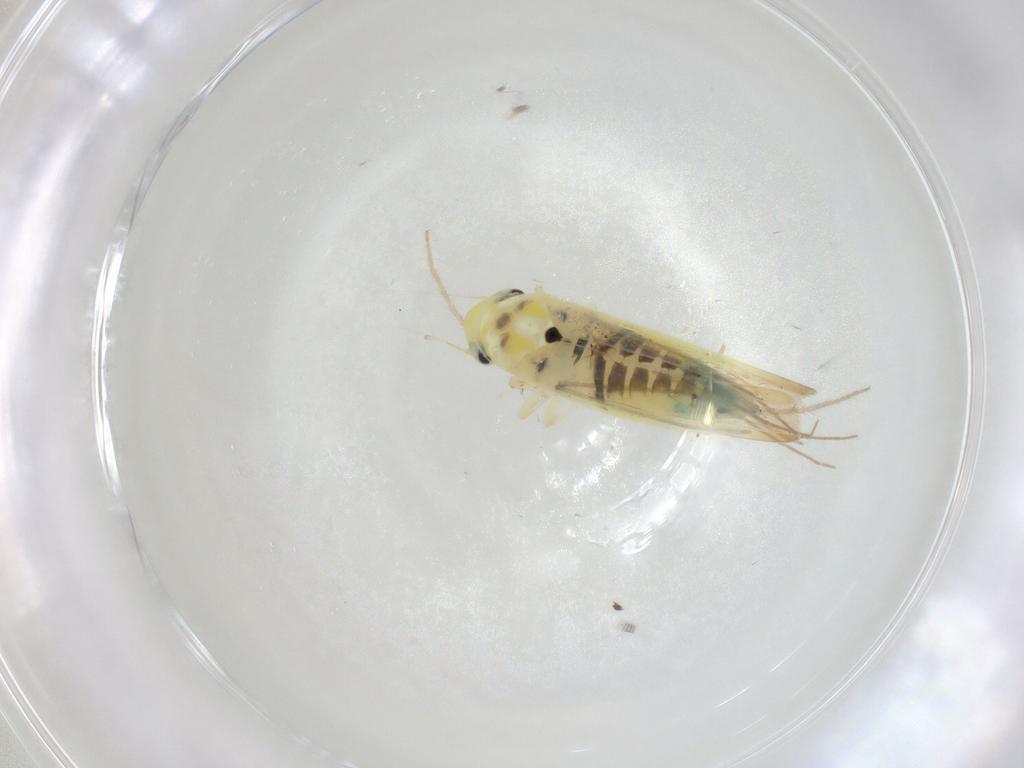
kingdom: Animalia
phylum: Arthropoda
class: Insecta
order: Hemiptera
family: Cicadellidae
